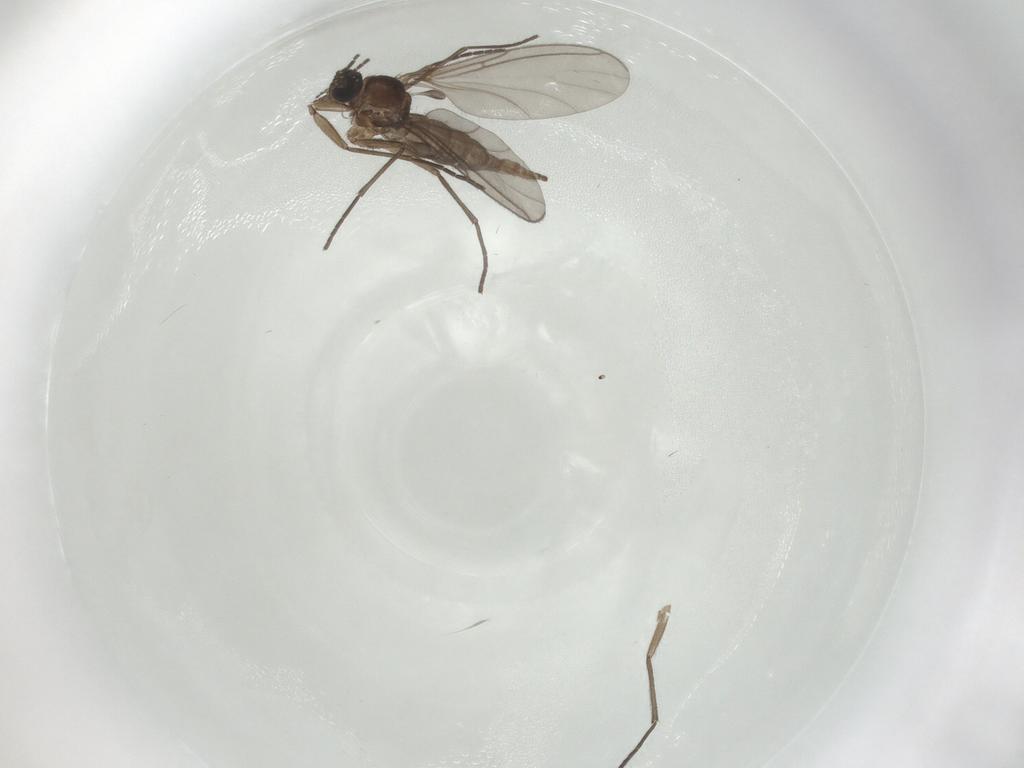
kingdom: Animalia
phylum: Arthropoda
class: Insecta
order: Diptera
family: Sciaridae
